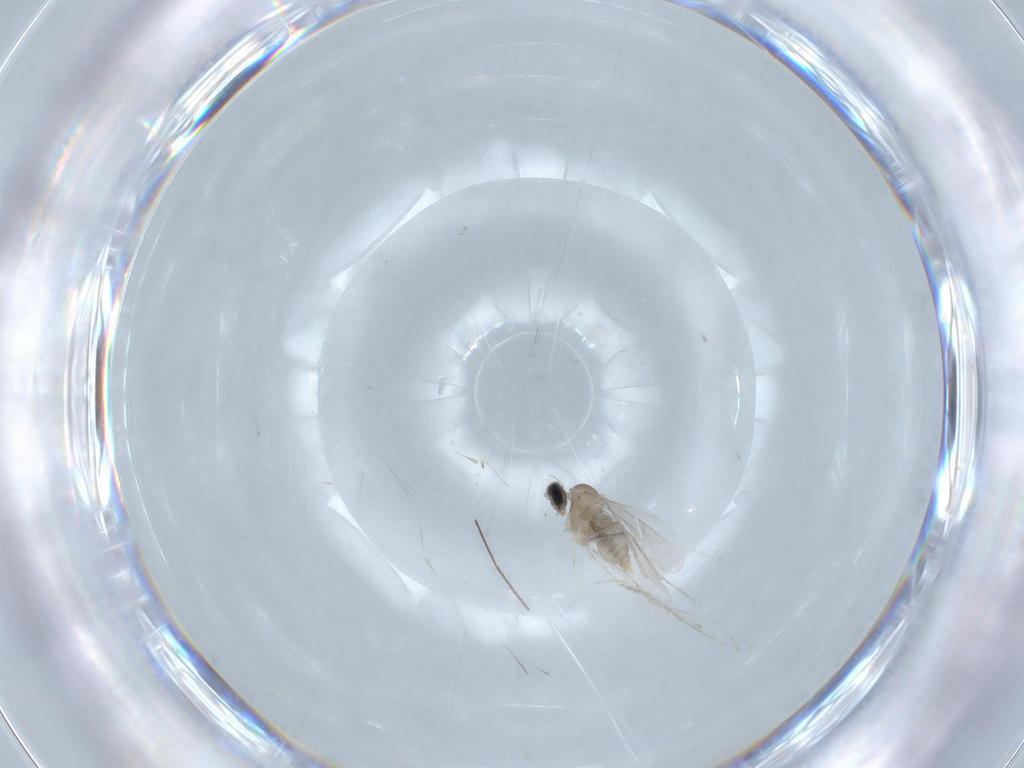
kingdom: Animalia
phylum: Arthropoda
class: Insecta
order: Diptera
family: Cecidomyiidae
